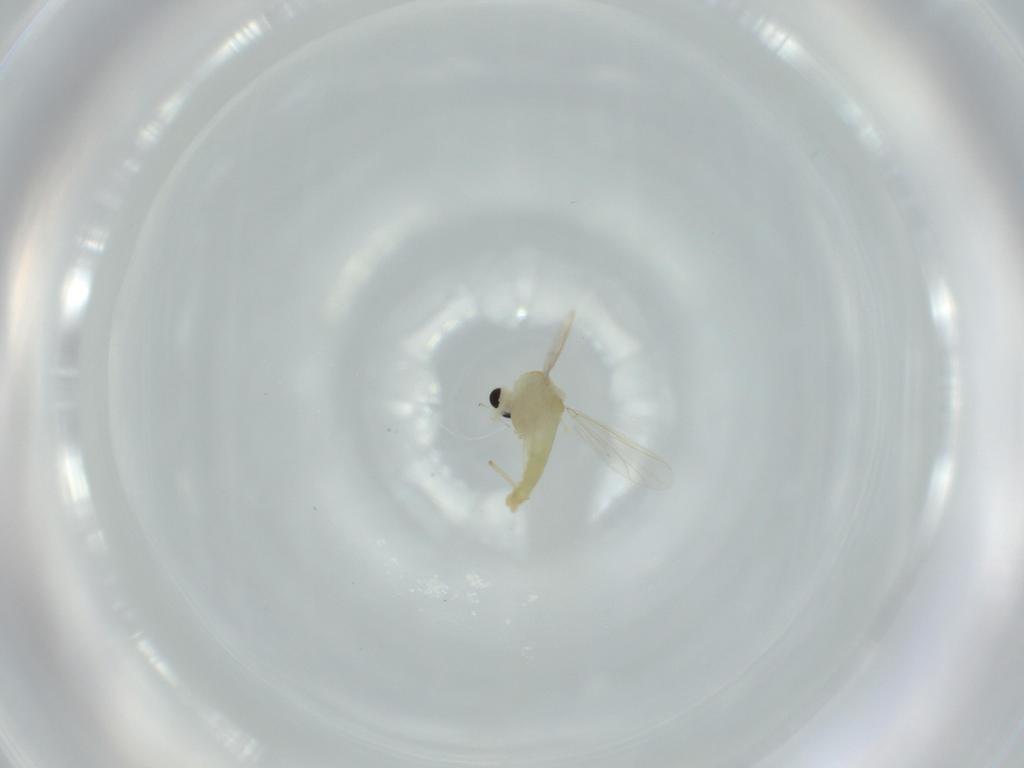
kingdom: Animalia
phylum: Arthropoda
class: Insecta
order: Diptera
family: Chironomidae
